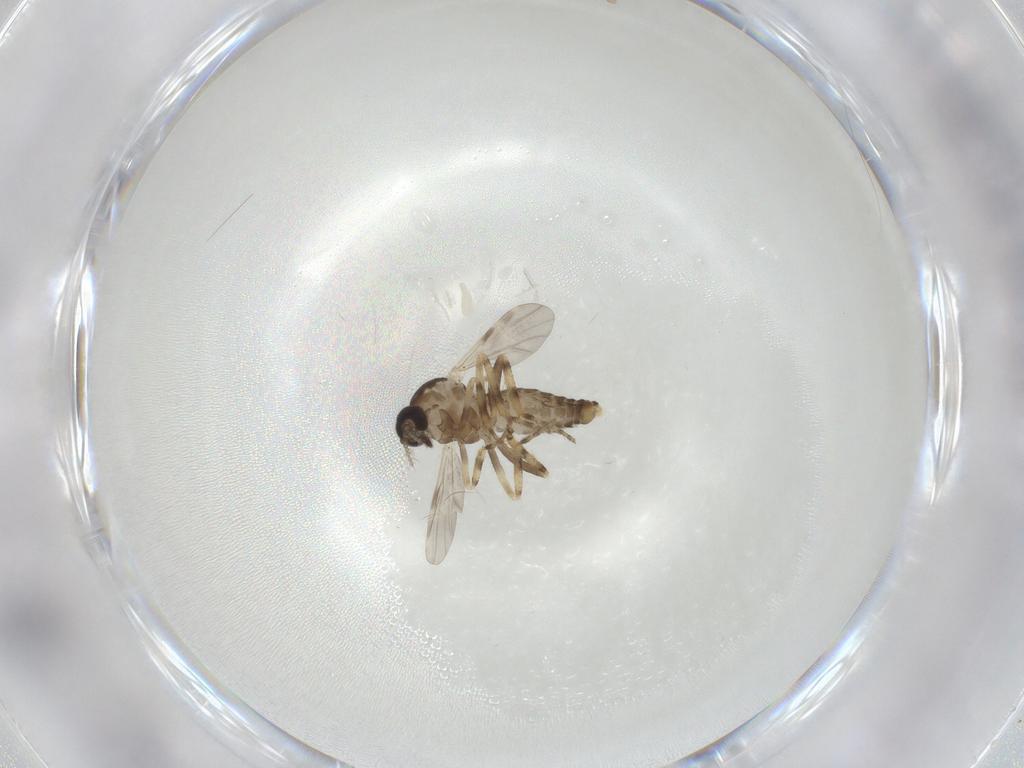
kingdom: Animalia
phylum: Arthropoda
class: Insecta
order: Diptera
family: Ceratopogonidae
